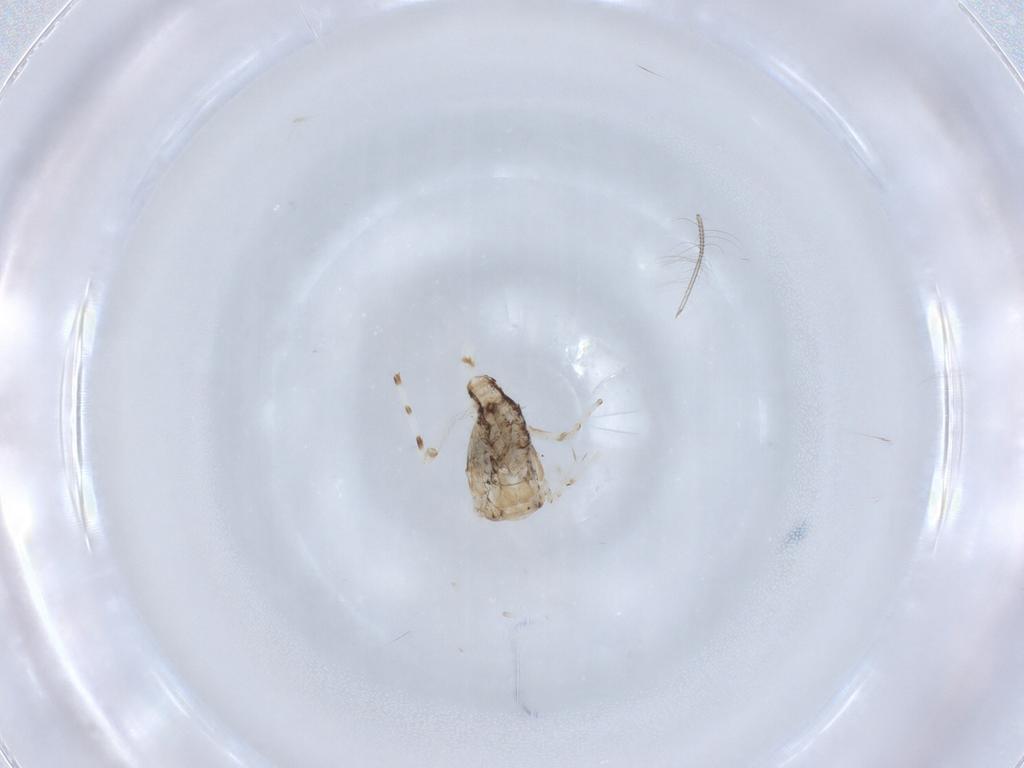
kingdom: Animalia
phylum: Arthropoda
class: Insecta
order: Diptera
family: Chironomidae
